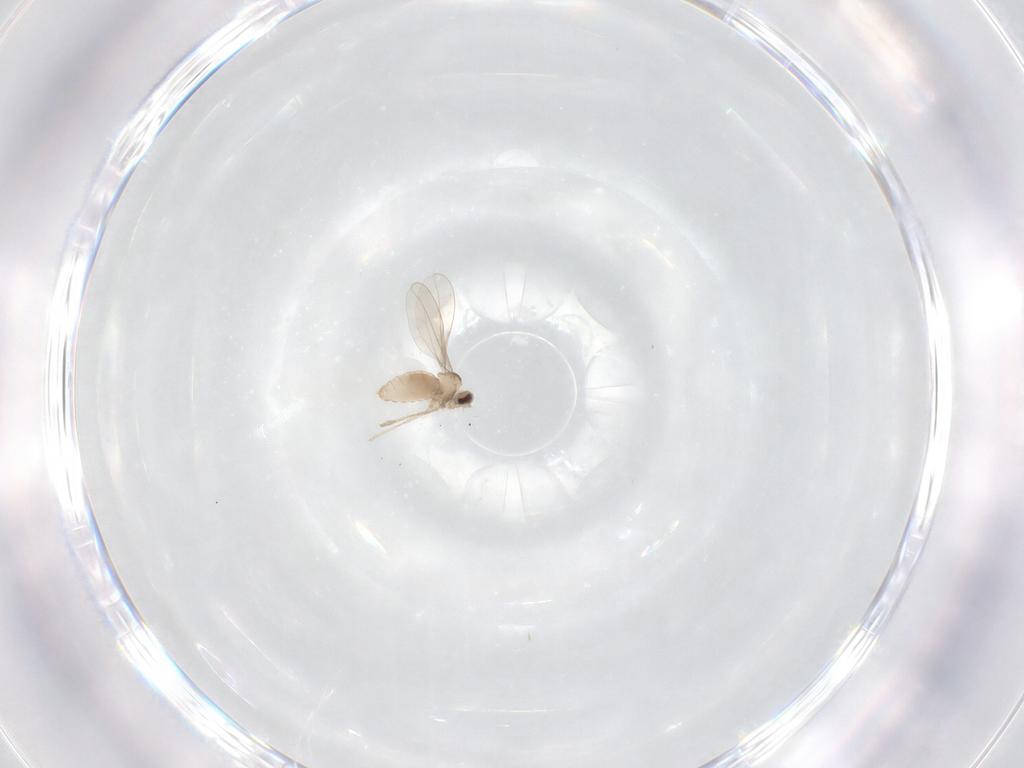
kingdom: Animalia
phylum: Arthropoda
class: Insecta
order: Diptera
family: Cecidomyiidae
